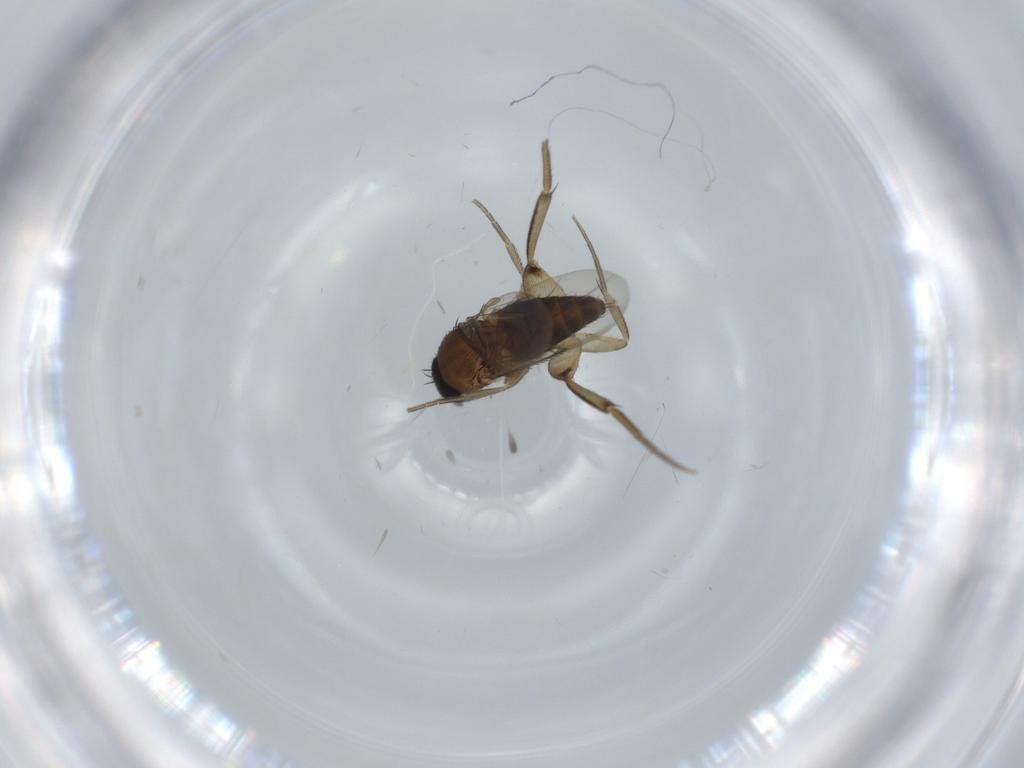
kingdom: Animalia
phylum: Arthropoda
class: Insecta
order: Diptera
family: Phoridae
